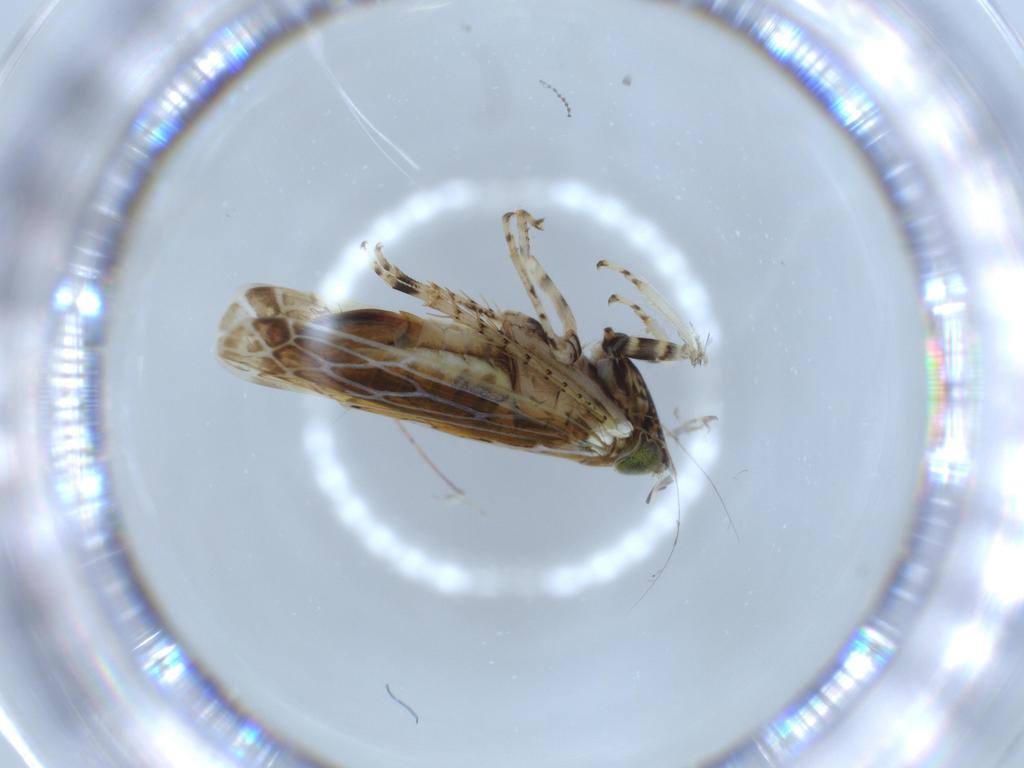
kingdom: Animalia
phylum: Arthropoda
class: Insecta
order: Hemiptera
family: Cicadellidae
